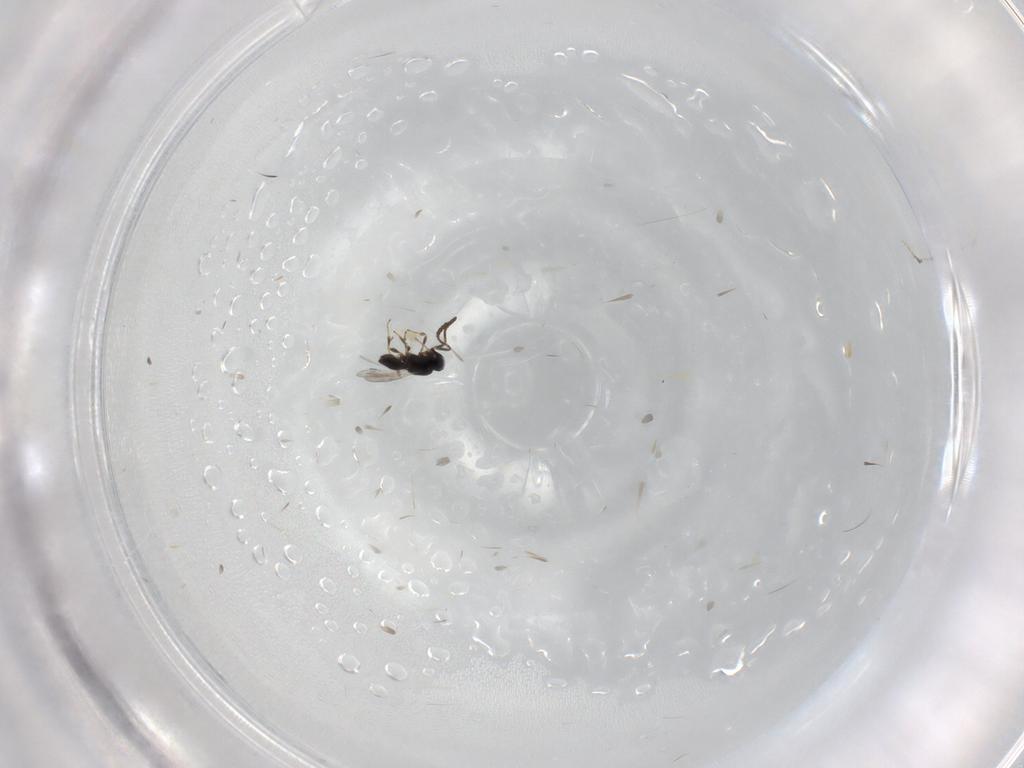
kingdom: Animalia
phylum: Arthropoda
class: Insecta
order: Hymenoptera
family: Scelionidae
